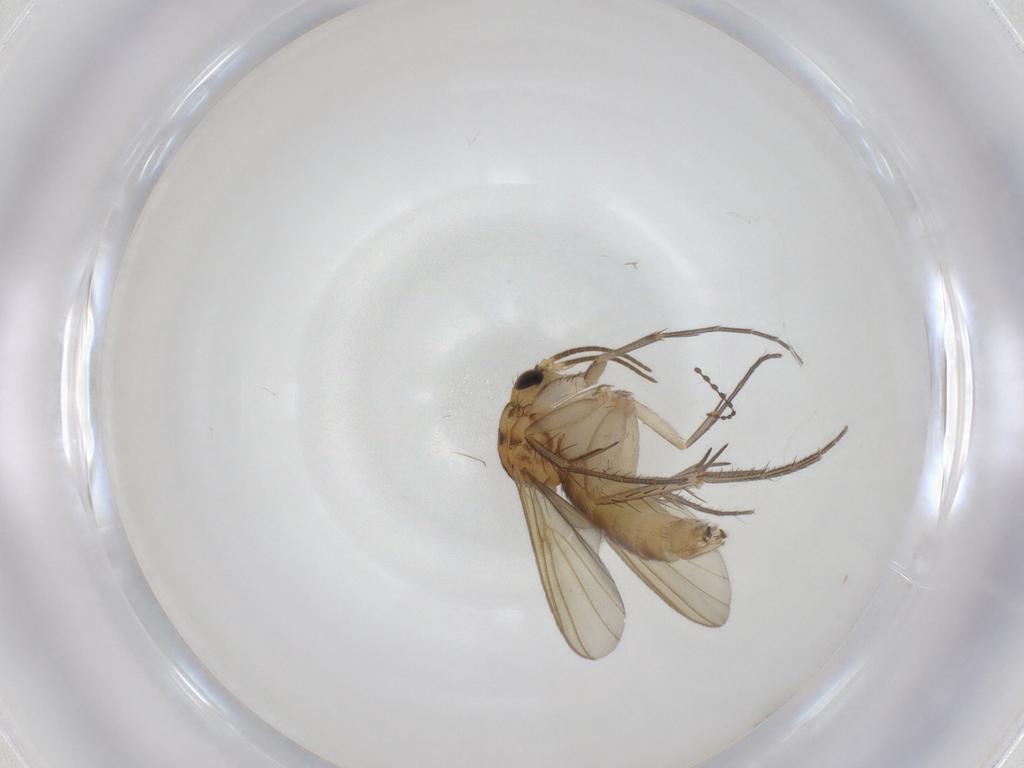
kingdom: Animalia
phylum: Arthropoda
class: Insecta
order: Diptera
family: Mycetophilidae
